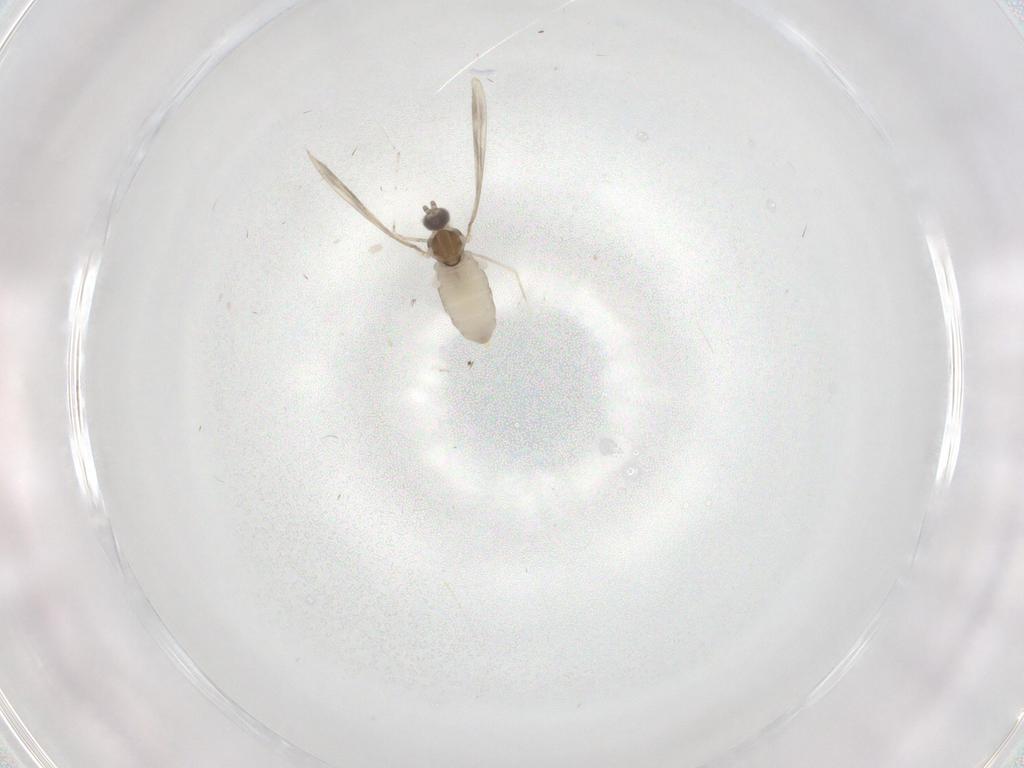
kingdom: Animalia
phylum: Arthropoda
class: Insecta
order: Diptera
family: Cecidomyiidae
